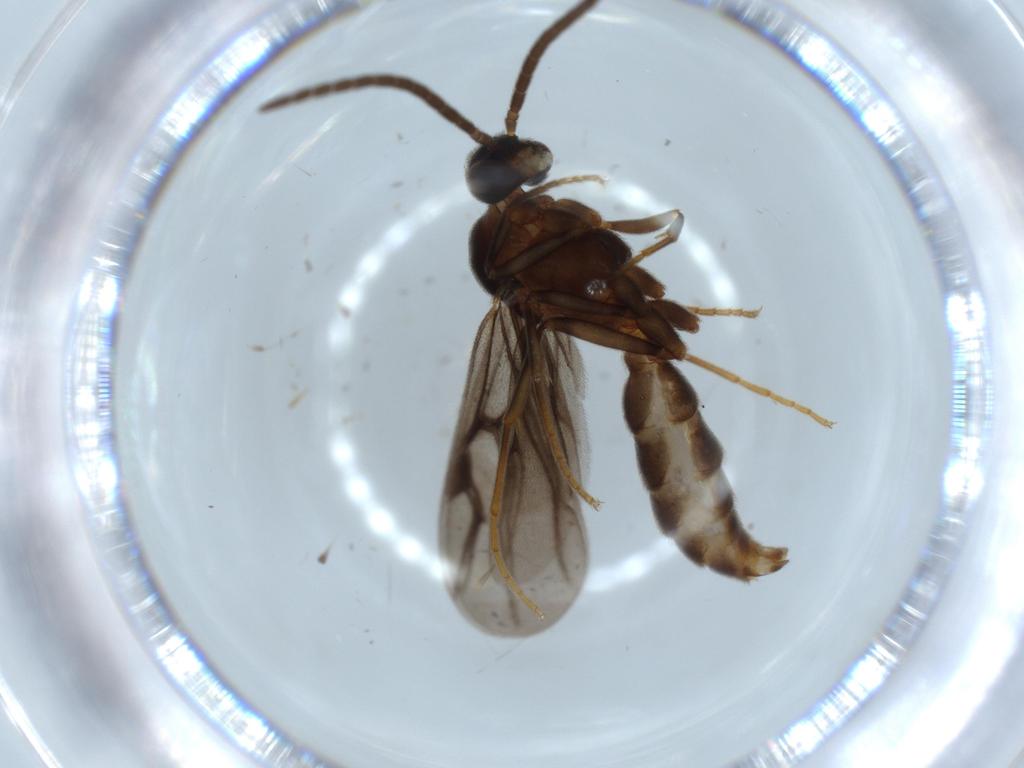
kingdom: Animalia
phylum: Arthropoda
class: Insecta
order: Hymenoptera
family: Formicidae
